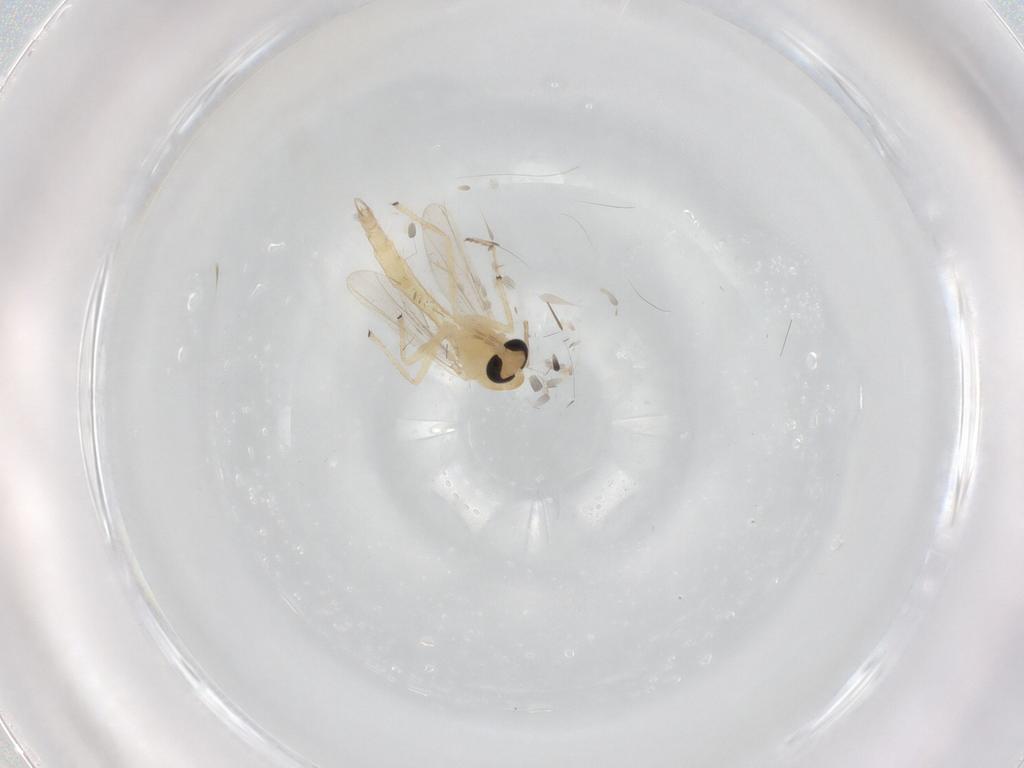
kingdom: Animalia
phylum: Arthropoda
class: Insecta
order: Diptera
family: Chironomidae
